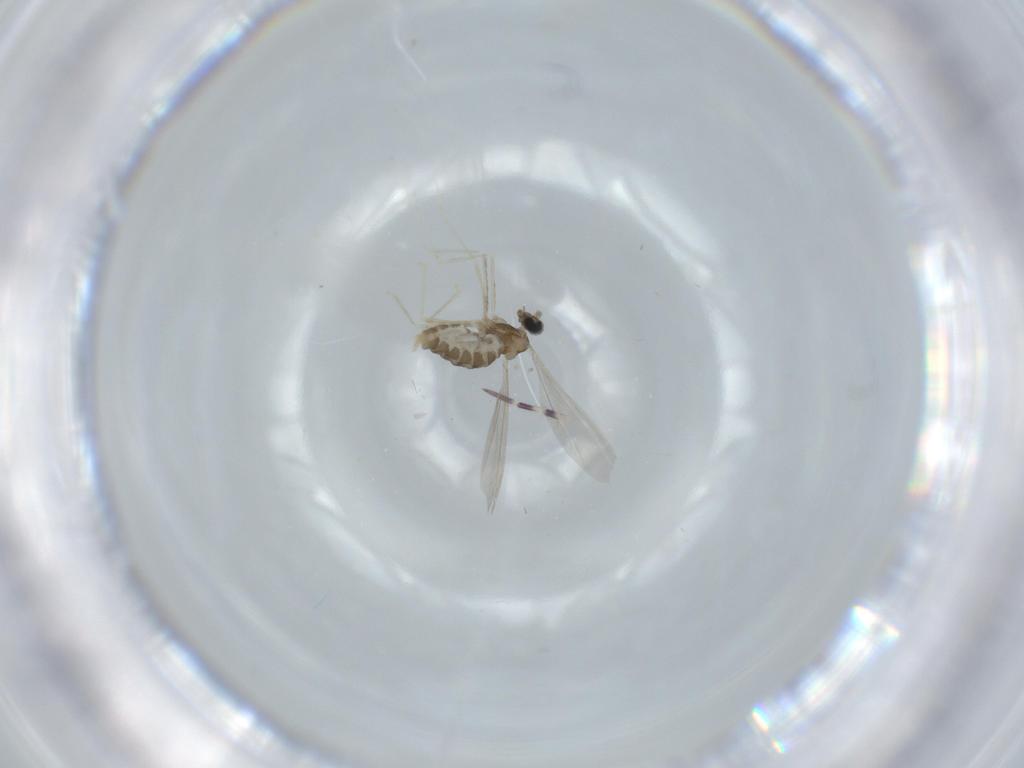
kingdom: Animalia
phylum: Arthropoda
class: Insecta
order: Diptera
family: Cecidomyiidae
